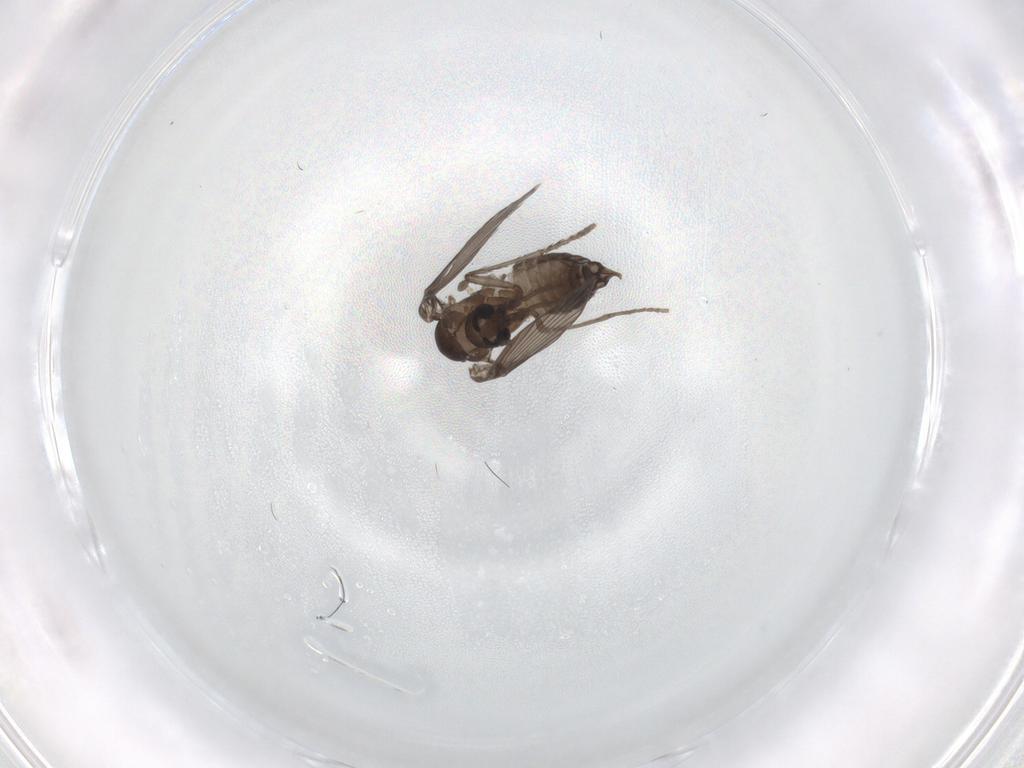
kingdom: Animalia
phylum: Arthropoda
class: Insecta
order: Diptera
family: Psychodidae
